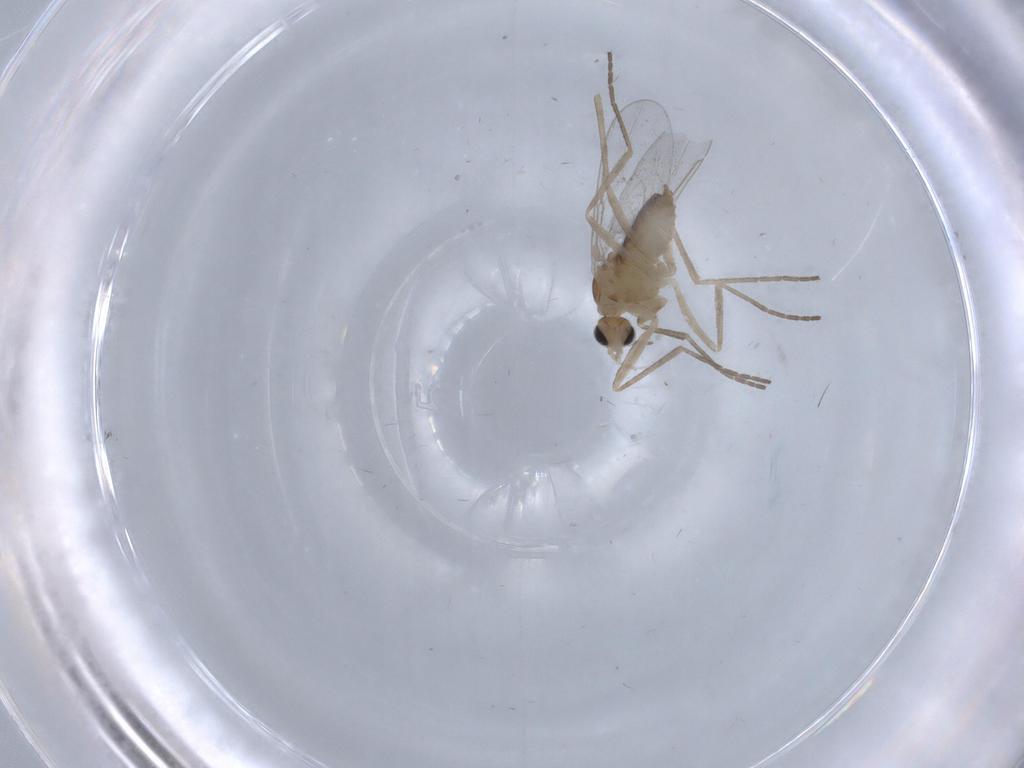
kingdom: Animalia
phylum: Arthropoda
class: Insecta
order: Diptera
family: Cecidomyiidae
